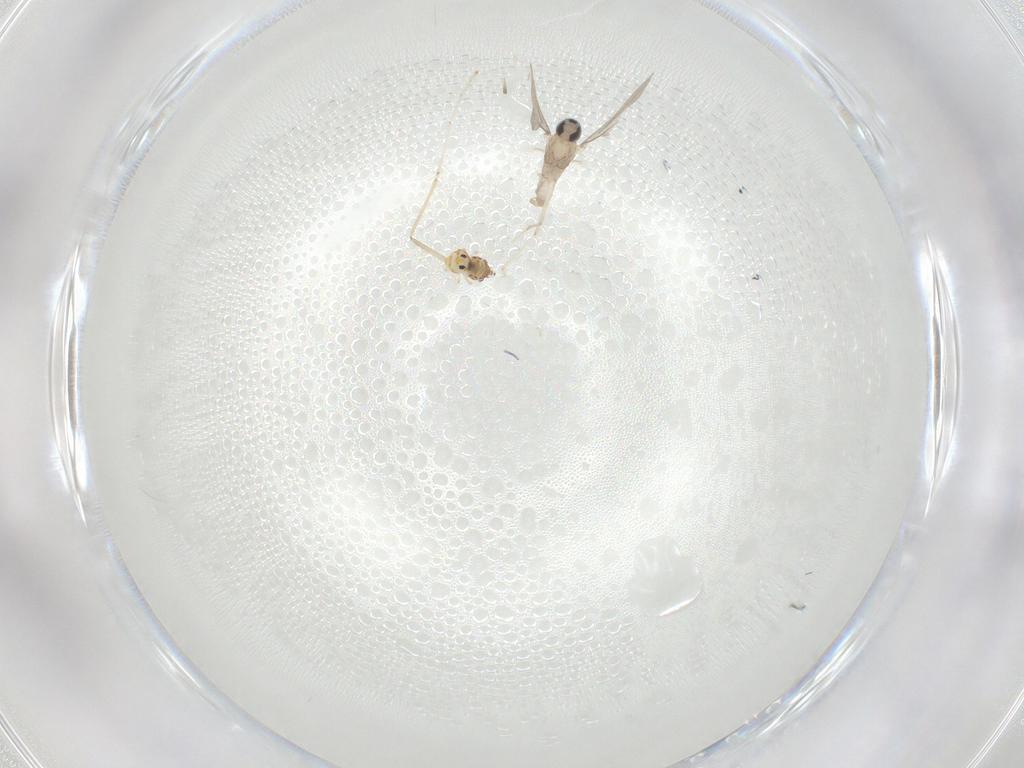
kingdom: Animalia
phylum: Arthropoda
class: Insecta
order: Diptera
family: Cecidomyiidae
